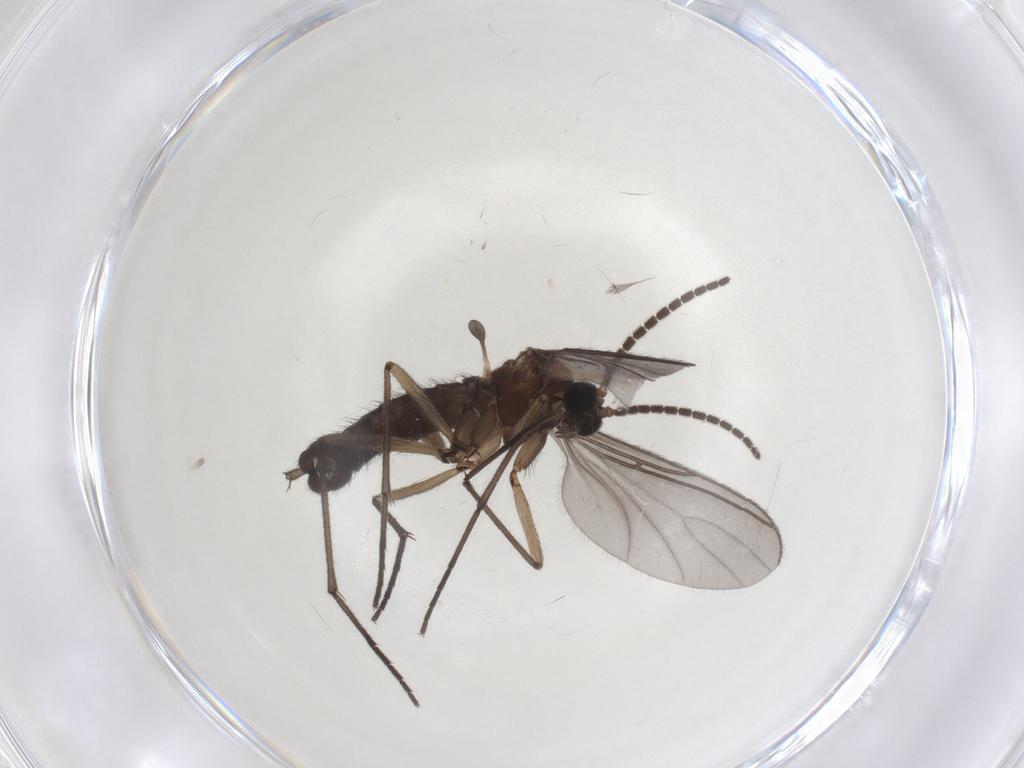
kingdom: Animalia
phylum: Arthropoda
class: Insecta
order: Diptera
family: Sciaridae
